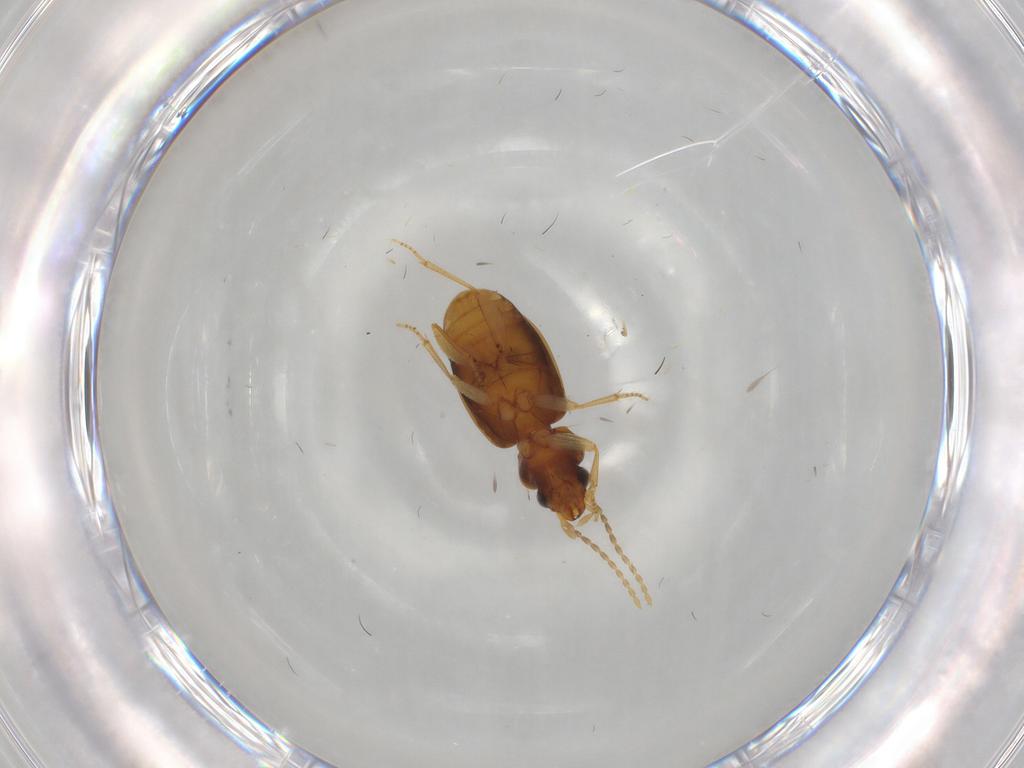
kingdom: Animalia
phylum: Arthropoda
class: Insecta
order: Coleoptera
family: Carabidae
